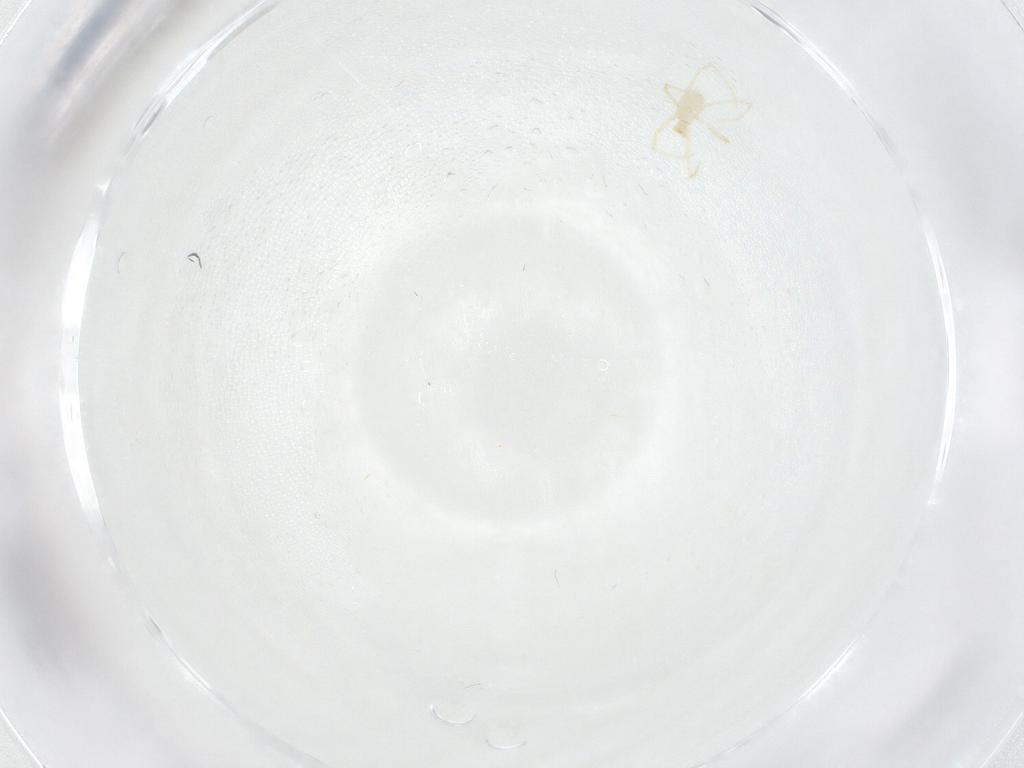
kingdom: Animalia
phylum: Arthropoda
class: Arachnida
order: Trombidiformes
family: Erythraeidae
